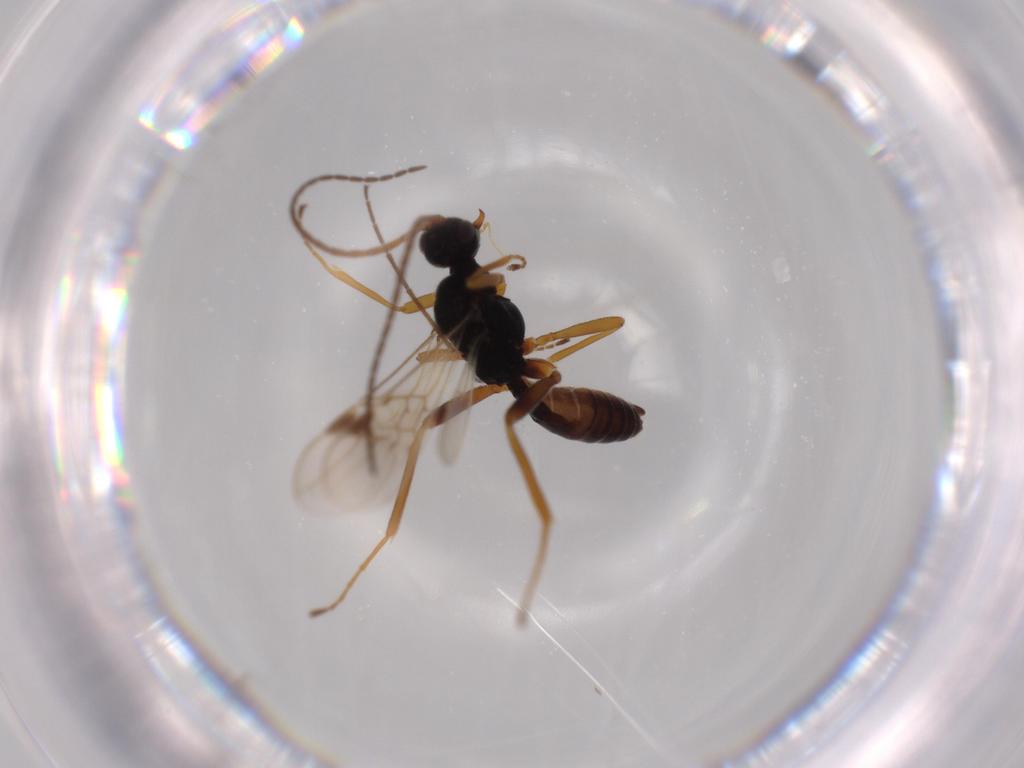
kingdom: Animalia
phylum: Arthropoda
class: Insecta
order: Hymenoptera
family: Braconidae
